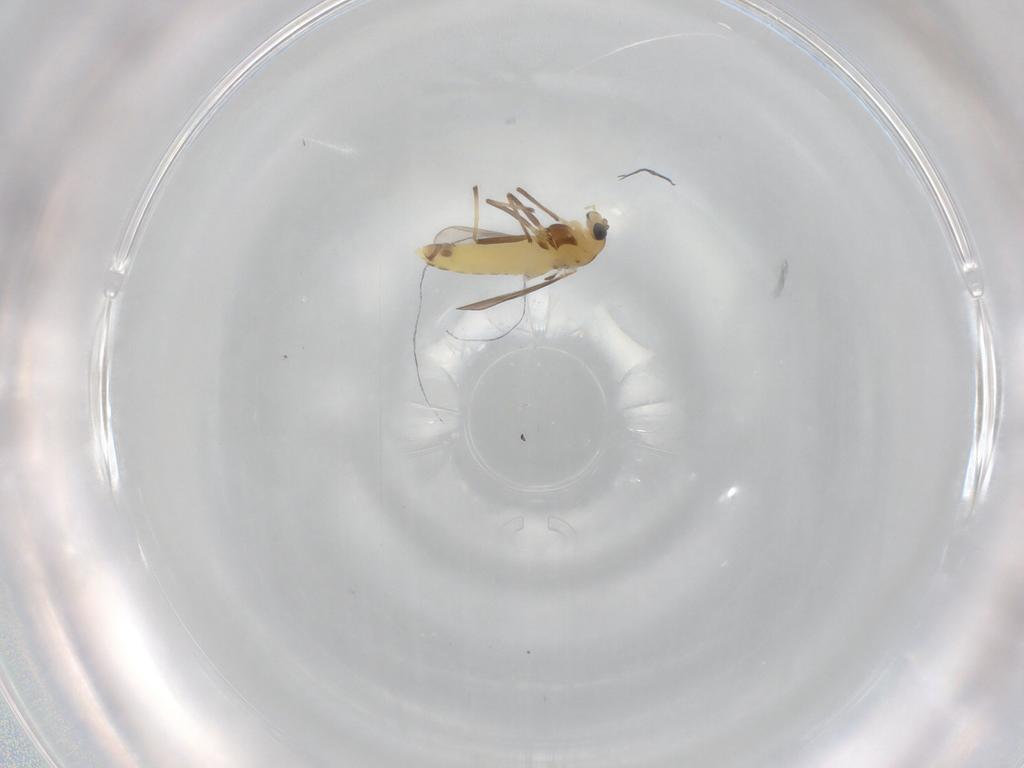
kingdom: Animalia
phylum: Arthropoda
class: Insecta
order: Diptera
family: Chironomidae
